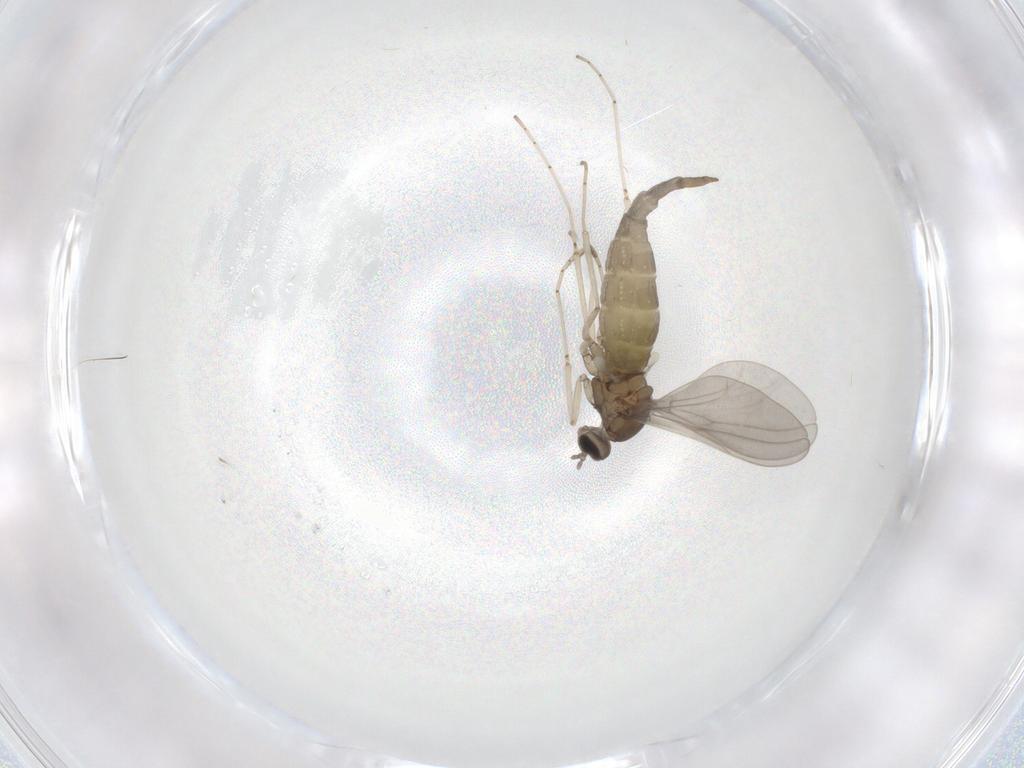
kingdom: Animalia
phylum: Arthropoda
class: Insecta
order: Diptera
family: Cecidomyiidae
